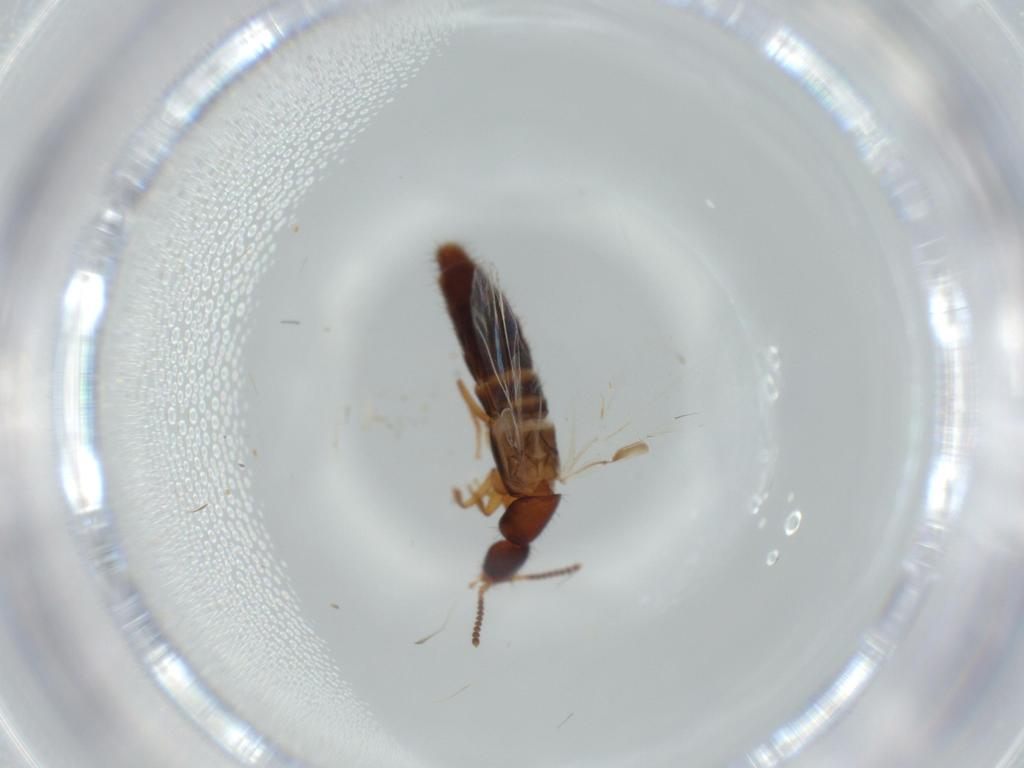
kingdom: Animalia
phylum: Arthropoda
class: Insecta
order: Coleoptera
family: Staphylinidae
